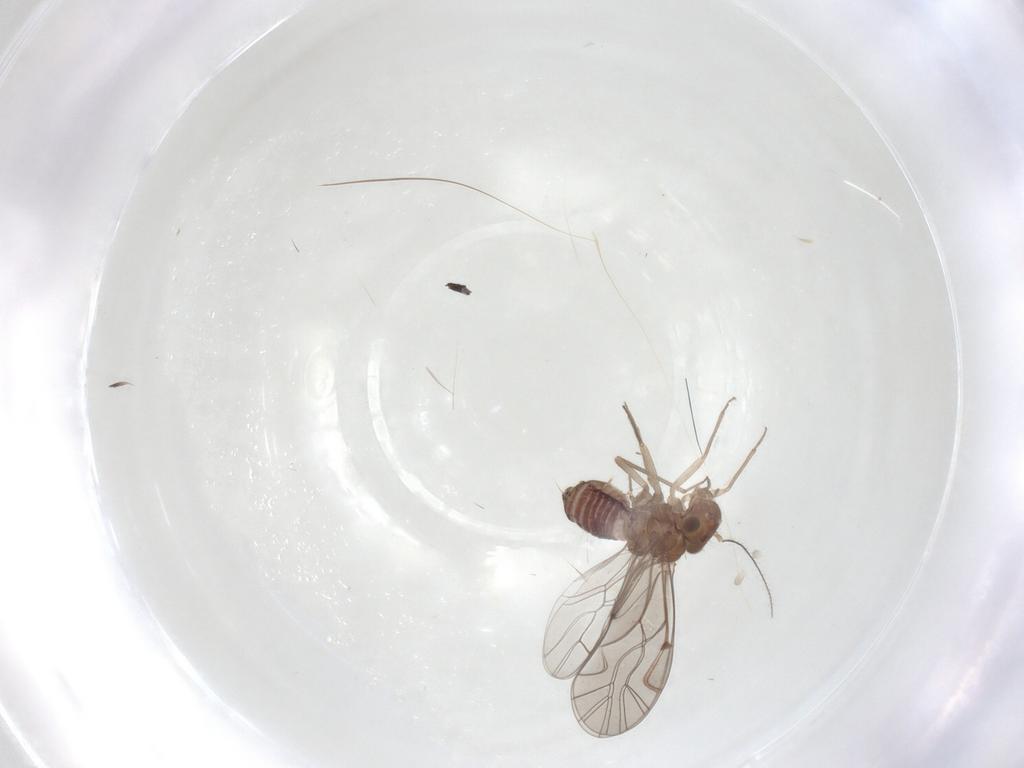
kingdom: Animalia
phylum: Arthropoda
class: Insecta
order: Psocodea
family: Lachesillidae
